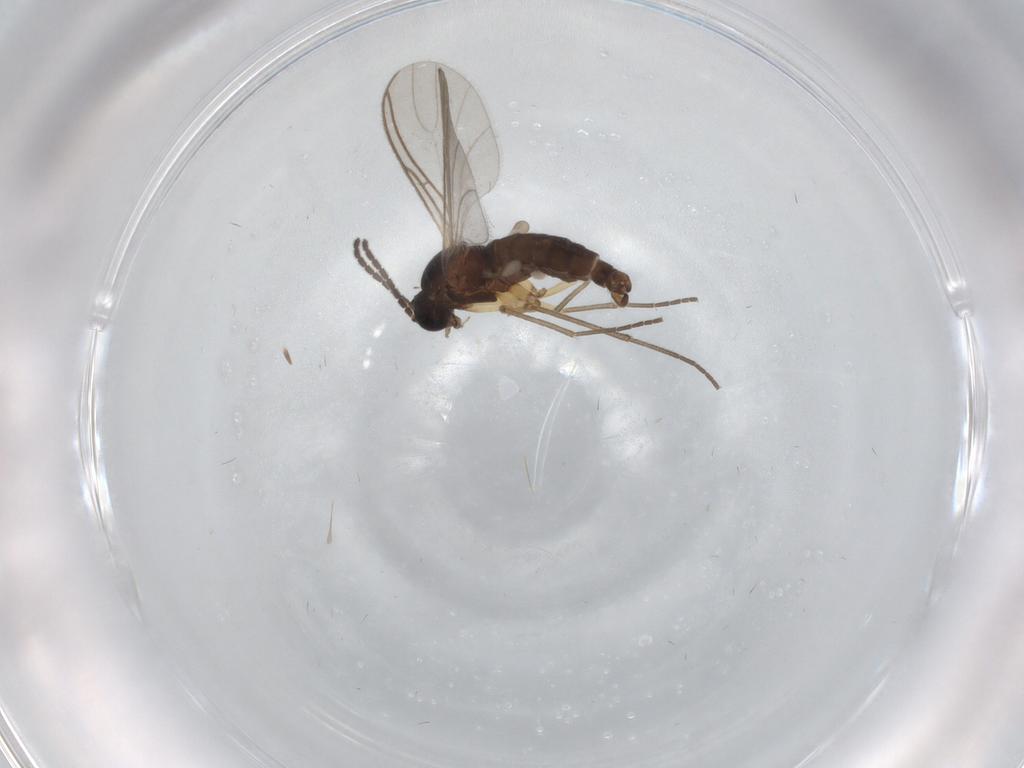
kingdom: Animalia
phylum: Arthropoda
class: Insecta
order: Diptera
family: Sciaridae
